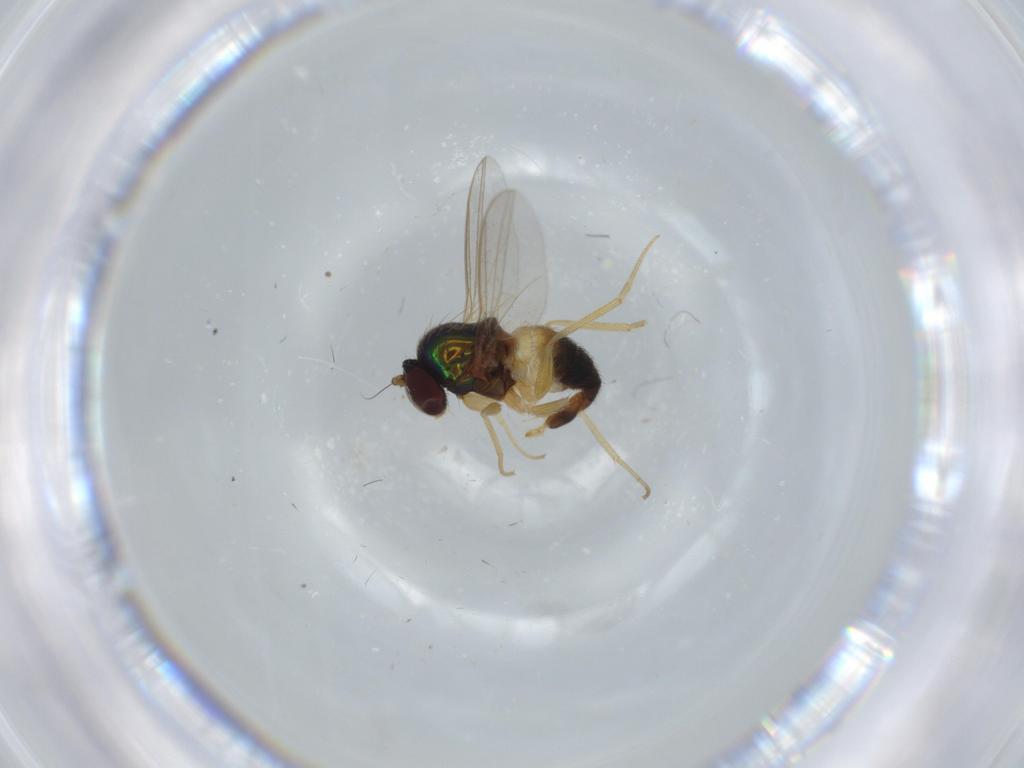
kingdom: Animalia
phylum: Arthropoda
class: Insecta
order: Diptera
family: Dolichopodidae
